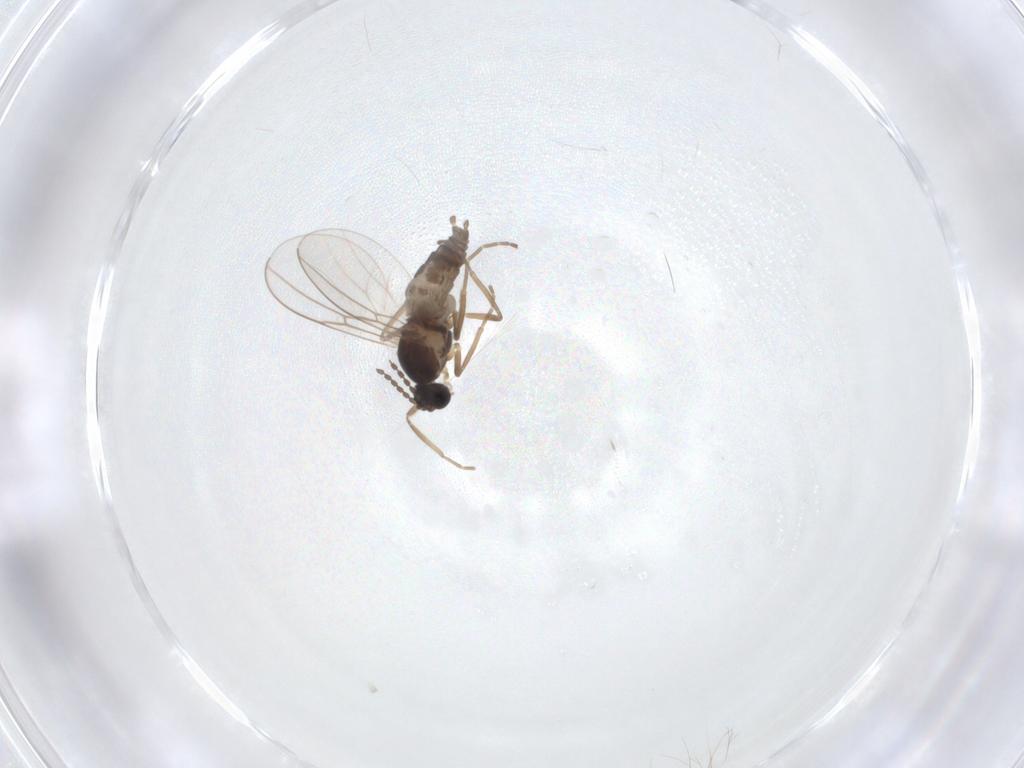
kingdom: Animalia
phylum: Arthropoda
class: Insecta
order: Diptera
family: Cecidomyiidae
